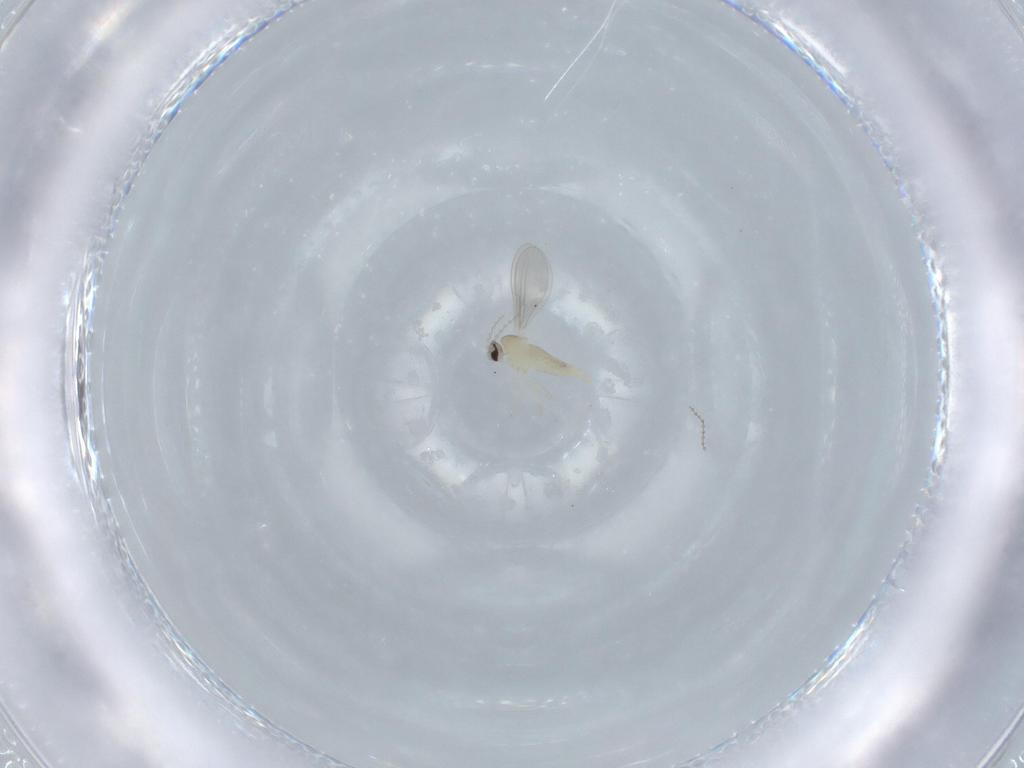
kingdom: Animalia
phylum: Arthropoda
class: Insecta
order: Diptera
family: Cecidomyiidae
